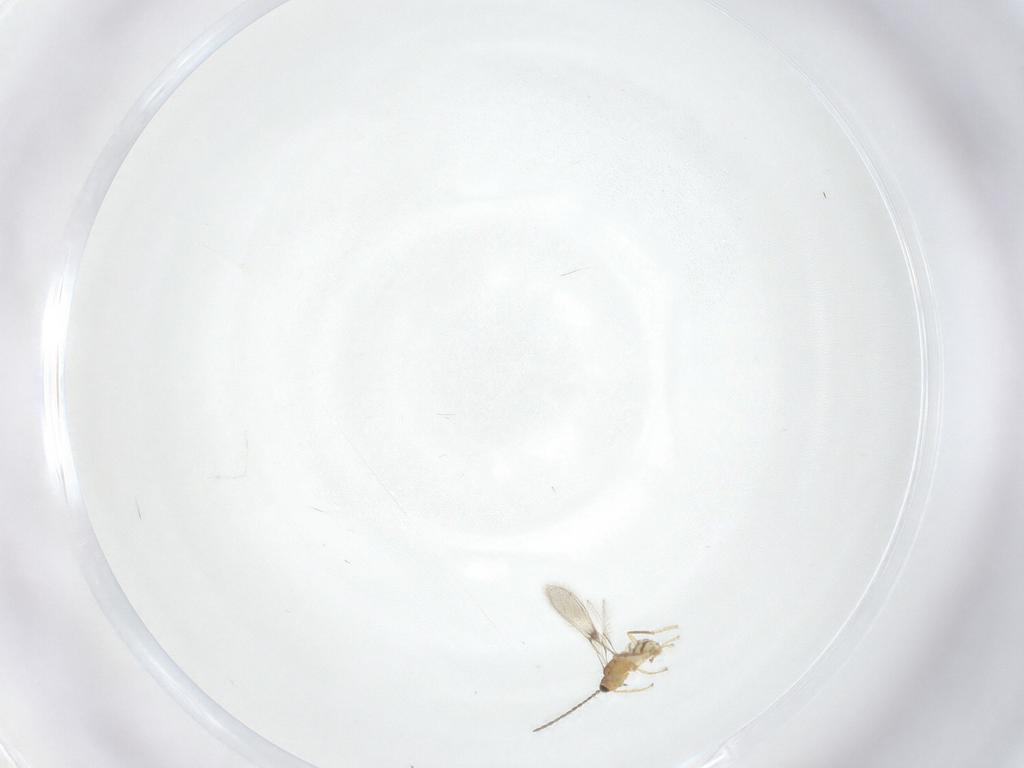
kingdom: Animalia
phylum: Arthropoda
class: Insecta
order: Hymenoptera
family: Mymaridae
